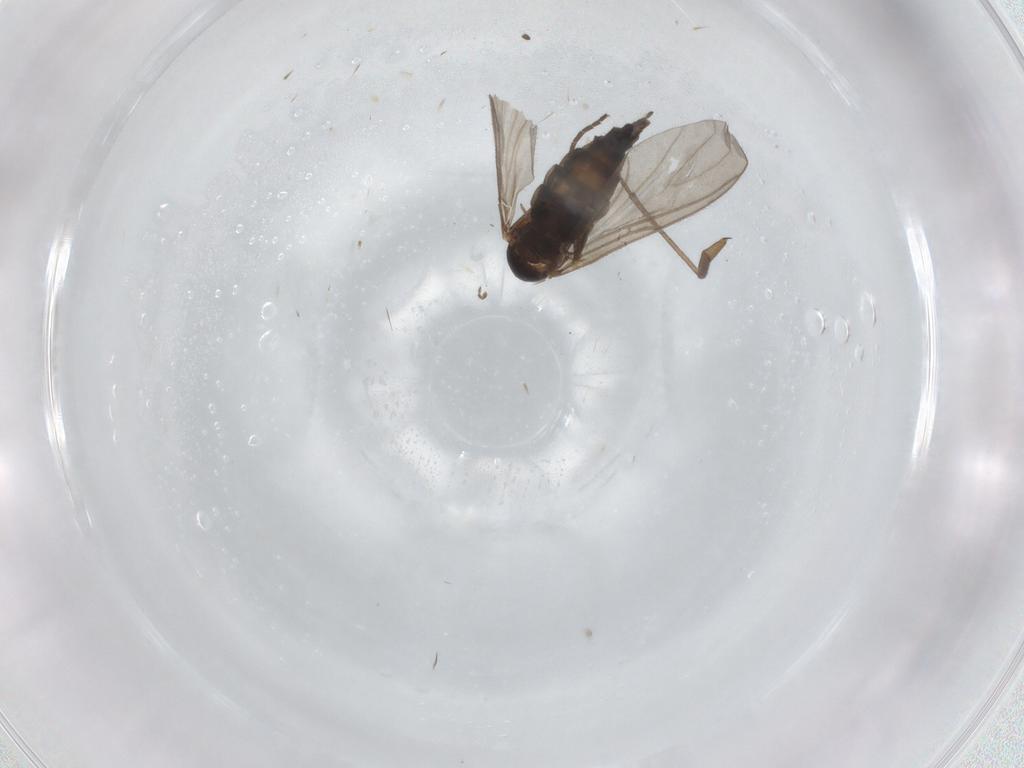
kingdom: Animalia
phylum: Arthropoda
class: Insecta
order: Diptera
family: Sciaridae
